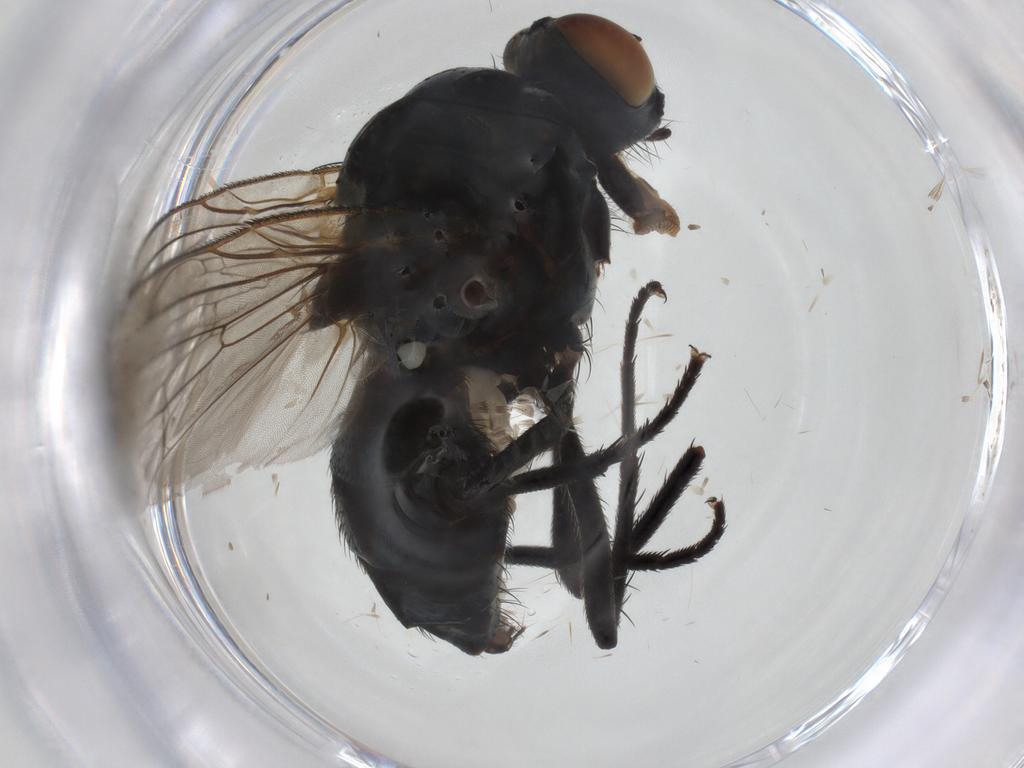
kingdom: Animalia
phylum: Arthropoda
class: Insecta
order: Diptera
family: Anthomyiidae
